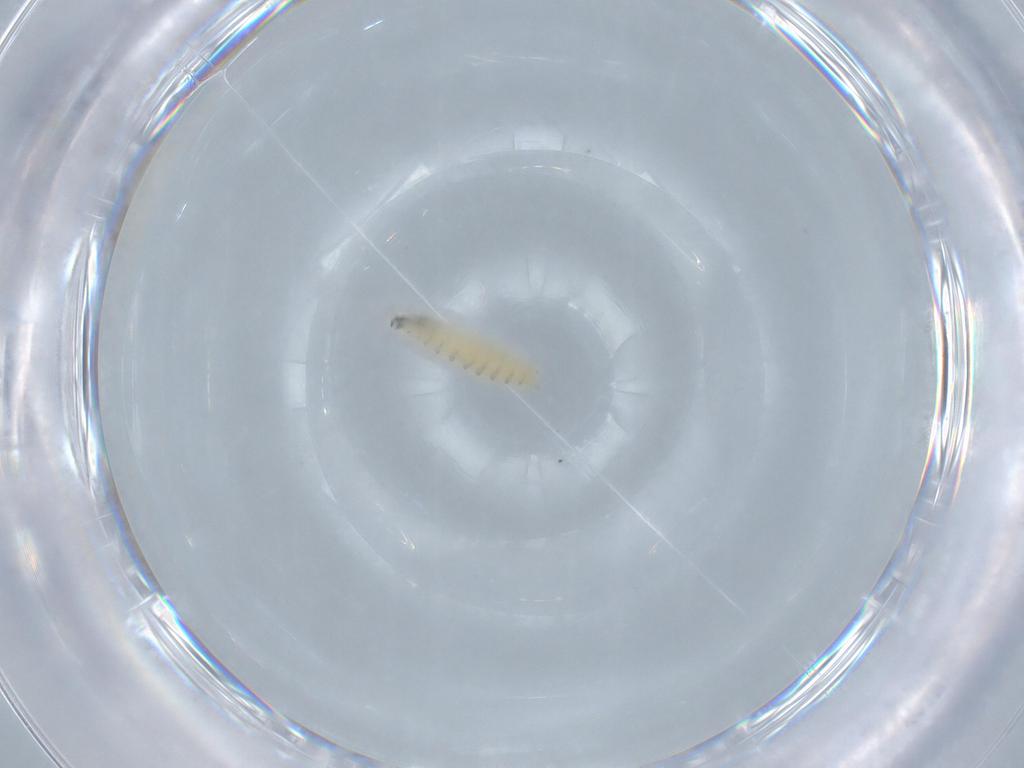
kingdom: Animalia
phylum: Arthropoda
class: Insecta
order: Diptera
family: Sarcophagidae
